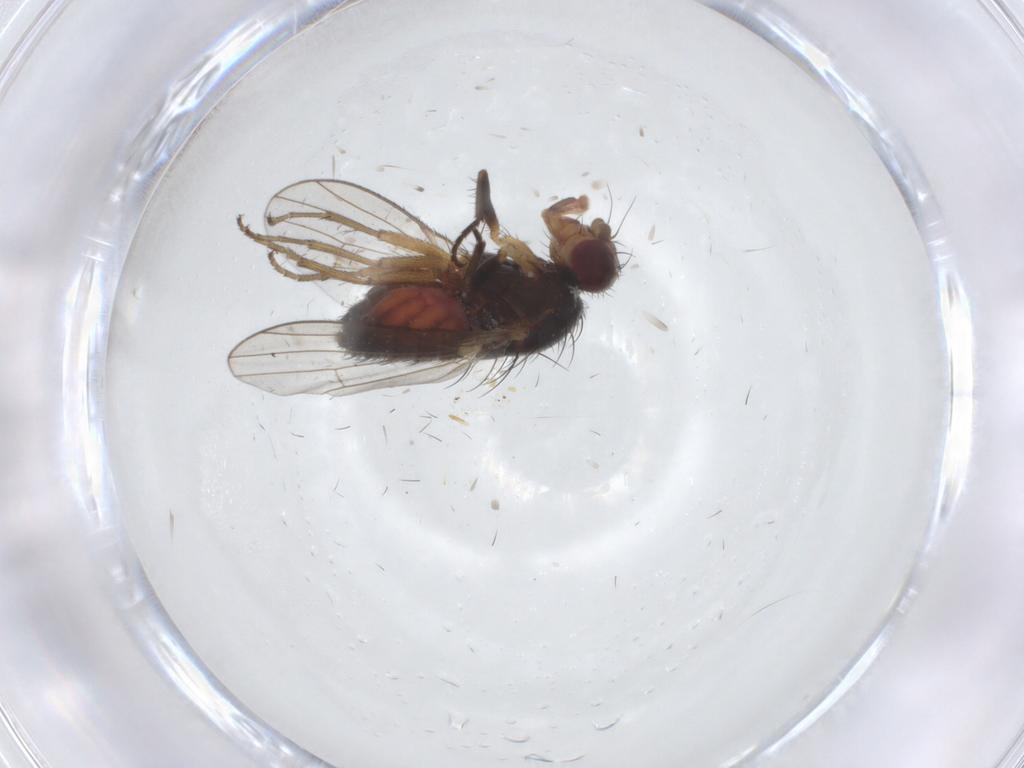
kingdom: Animalia
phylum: Arthropoda
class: Insecta
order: Diptera
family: Heleomyzidae
